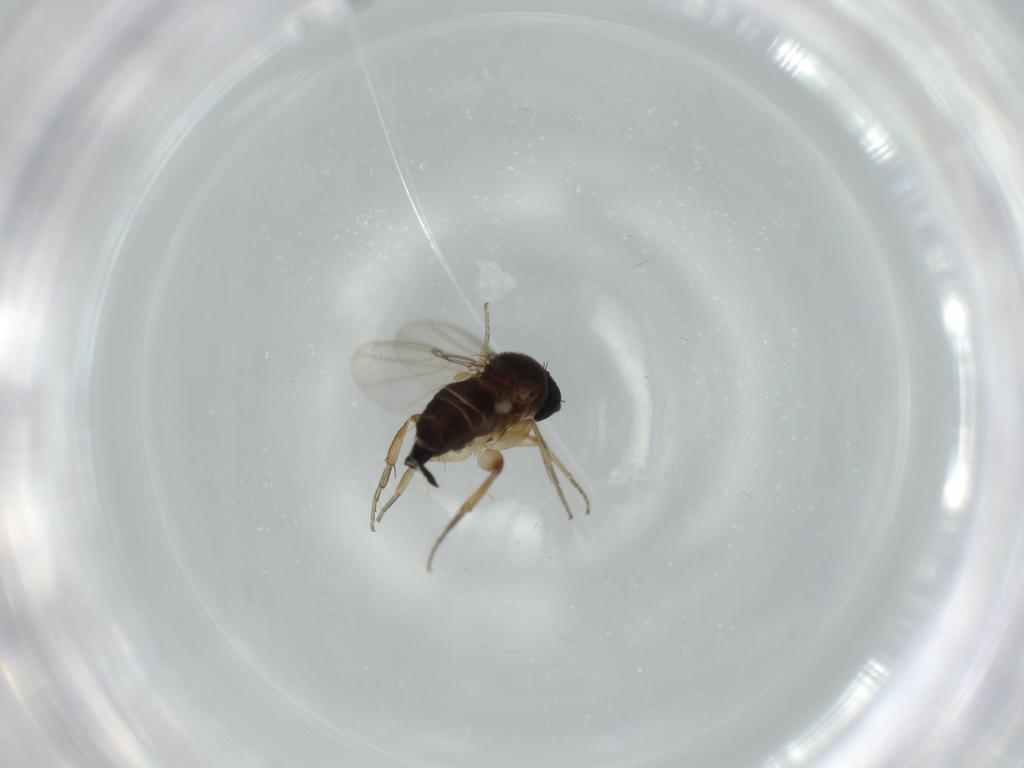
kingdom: Animalia
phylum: Arthropoda
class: Insecta
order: Diptera
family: Phoridae
